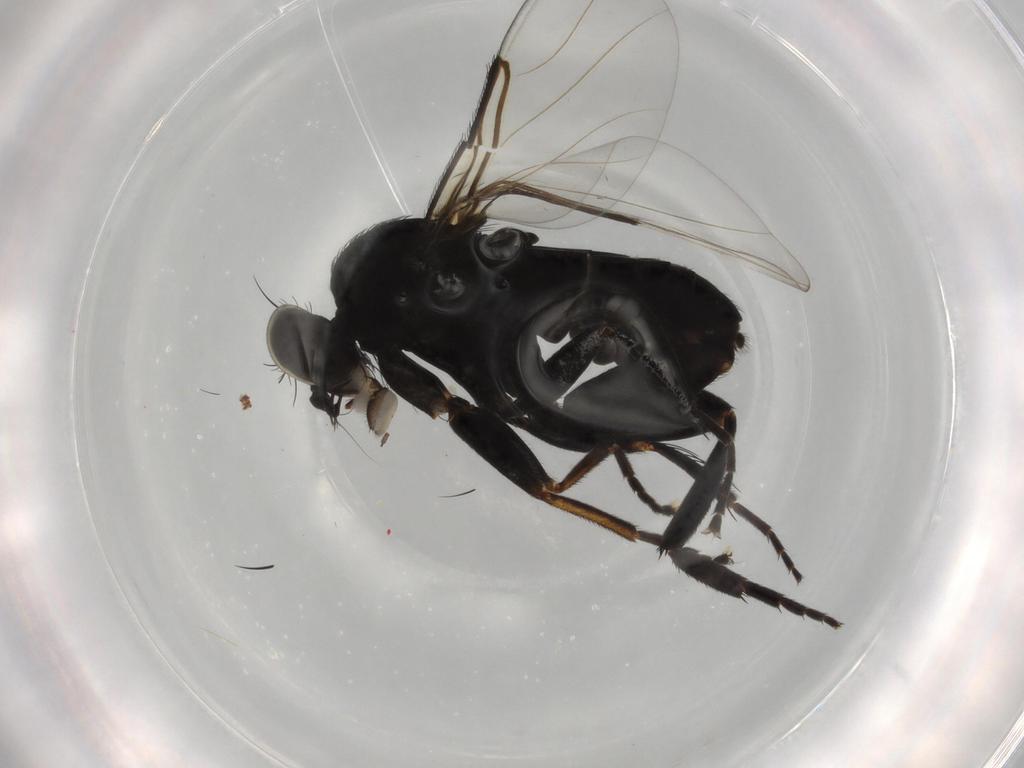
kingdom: Animalia
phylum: Arthropoda
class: Insecta
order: Diptera
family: Phoridae
